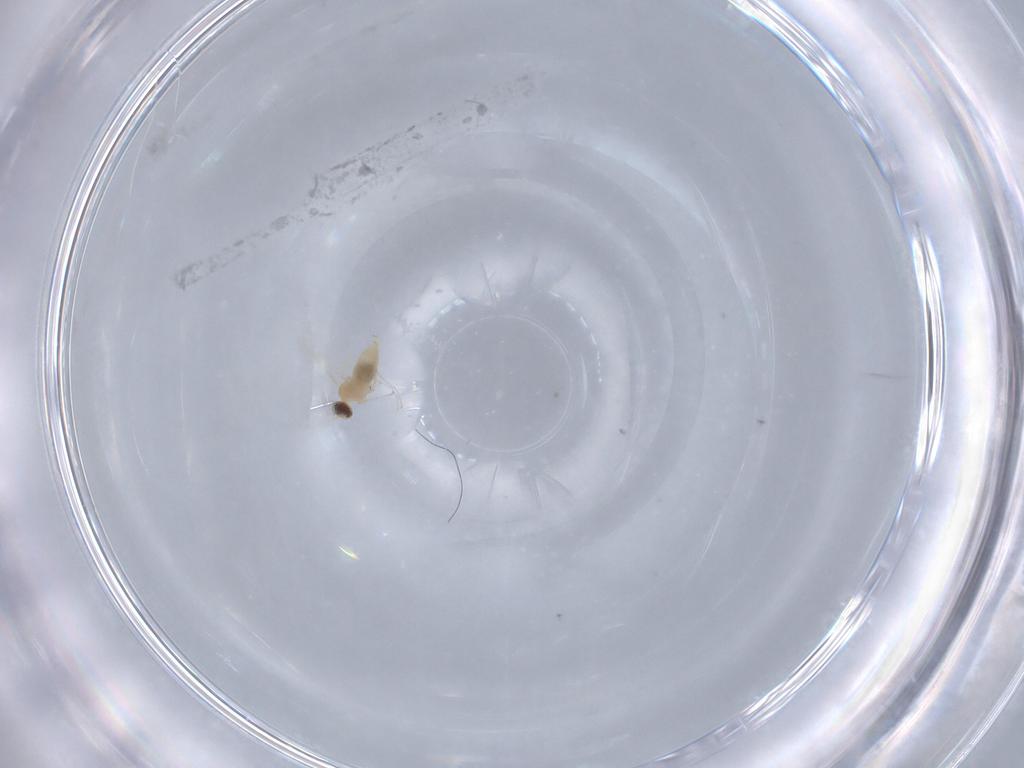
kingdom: Animalia
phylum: Arthropoda
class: Insecta
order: Diptera
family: Cecidomyiidae
